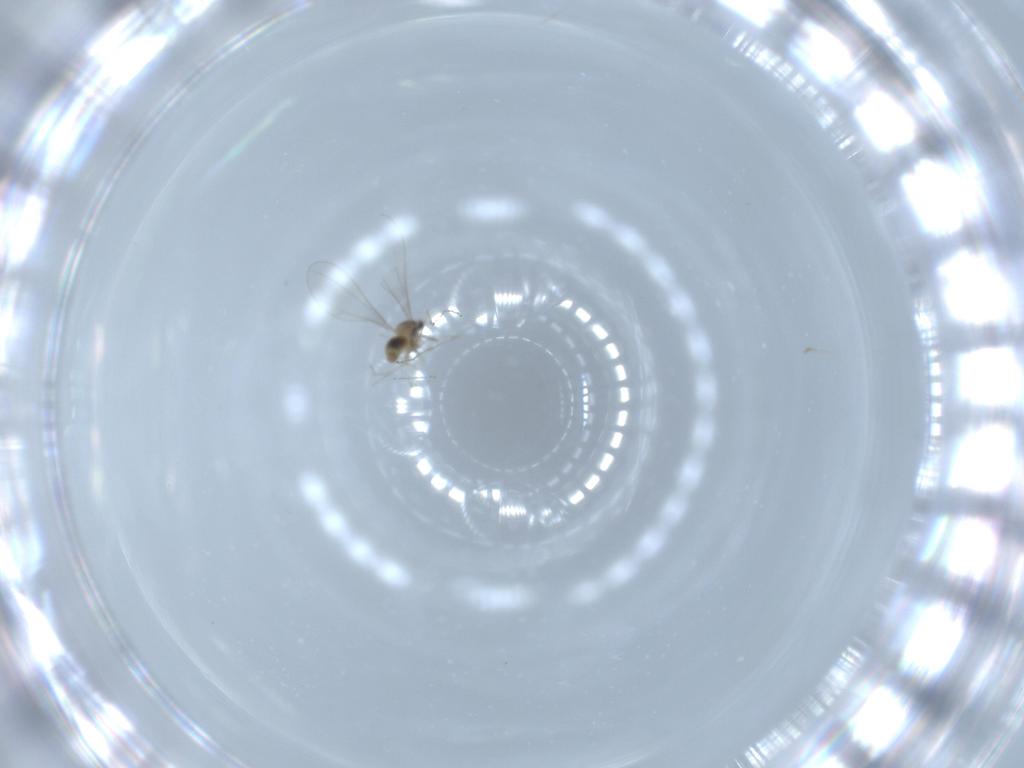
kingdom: Animalia
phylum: Arthropoda
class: Insecta
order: Diptera
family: Cecidomyiidae
